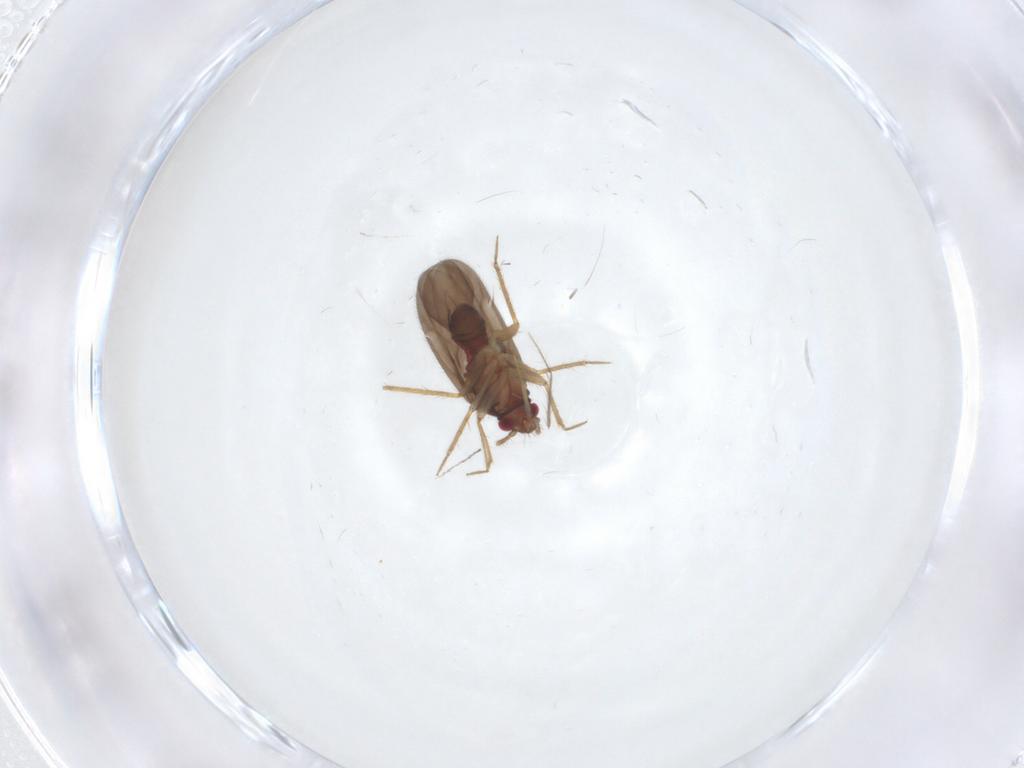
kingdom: Animalia
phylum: Arthropoda
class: Insecta
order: Hemiptera
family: Ceratocombidae
